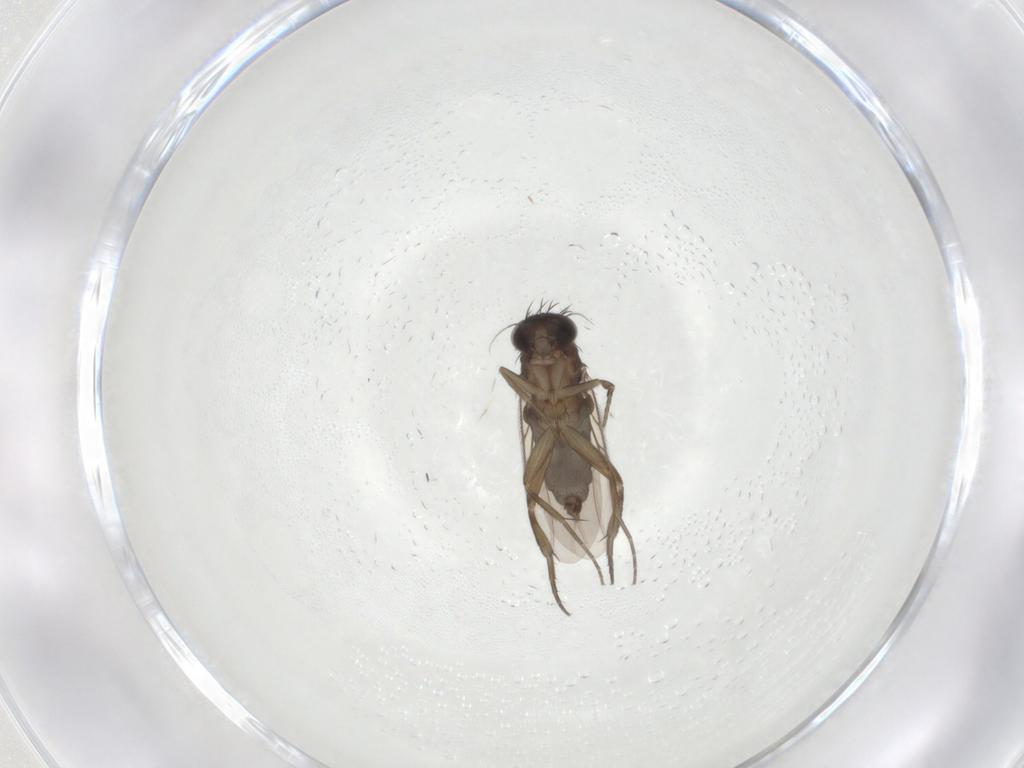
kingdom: Animalia
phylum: Arthropoda
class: Insecta
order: Diptera
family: Phoridae
